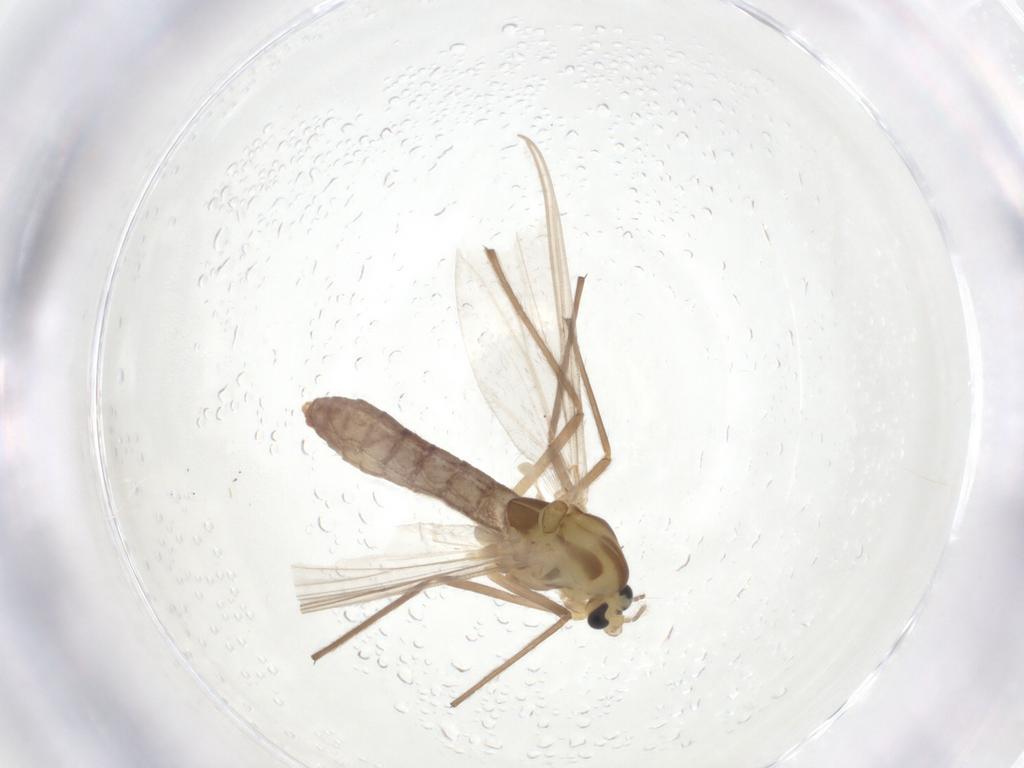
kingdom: Animalia
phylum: Arthropoda
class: Insecta
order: Diptera
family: Chironomidae
